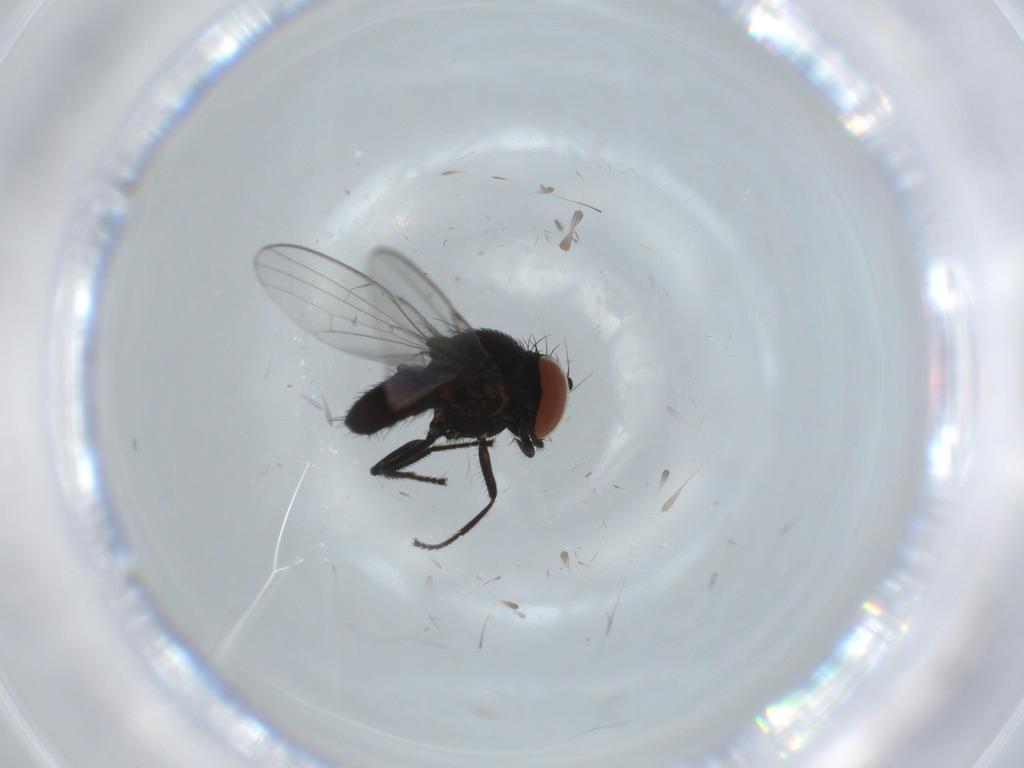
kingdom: Animalia
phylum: Arthropoda
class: Insecta
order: Diptera
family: Milichiidae
